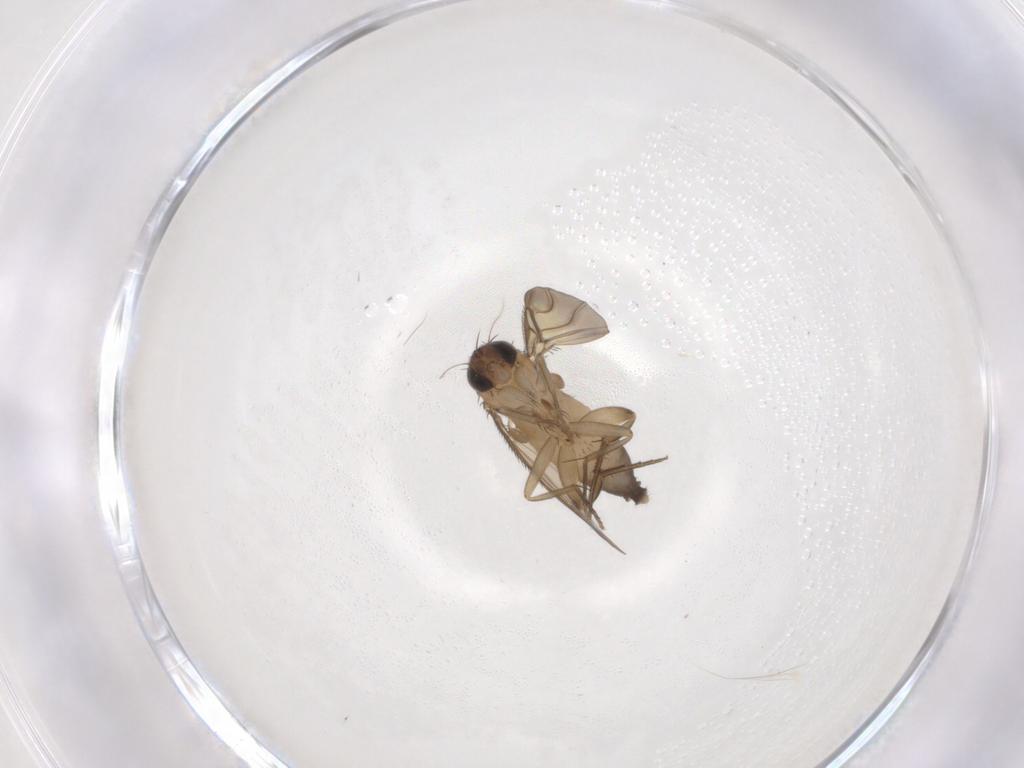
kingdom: Animalia
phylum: Arthropoda
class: Insecta
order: Diptera
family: Phoridae
